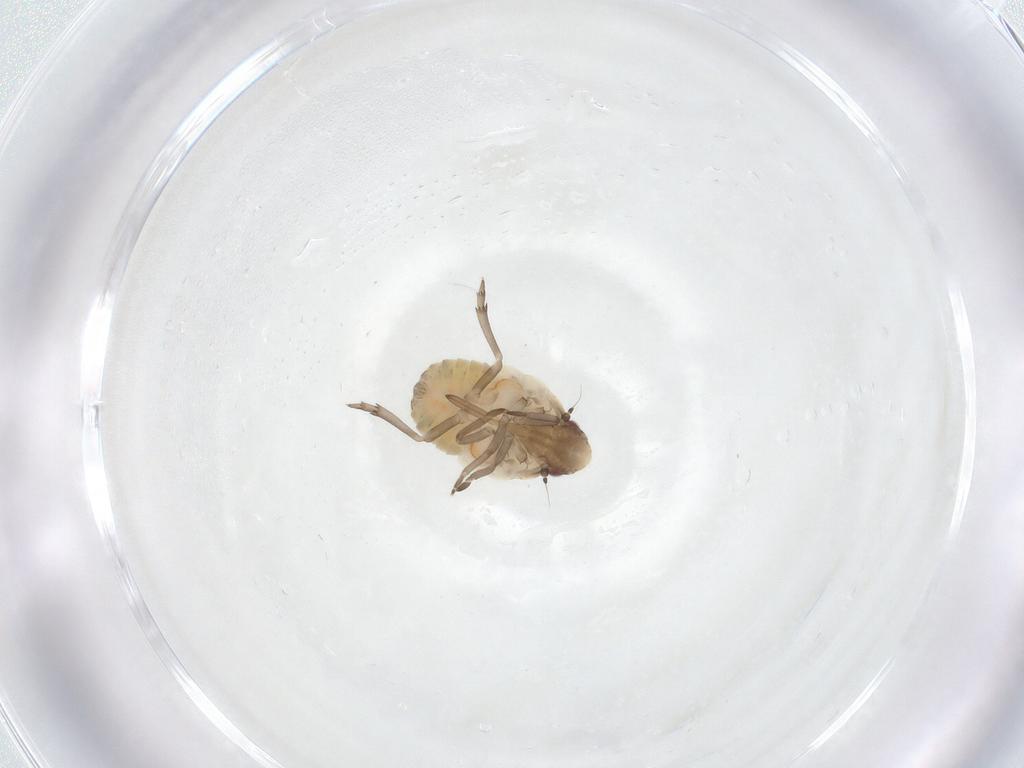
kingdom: Animalia
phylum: Arthropoda
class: Insecta
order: Hemiptera
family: Flatidae
